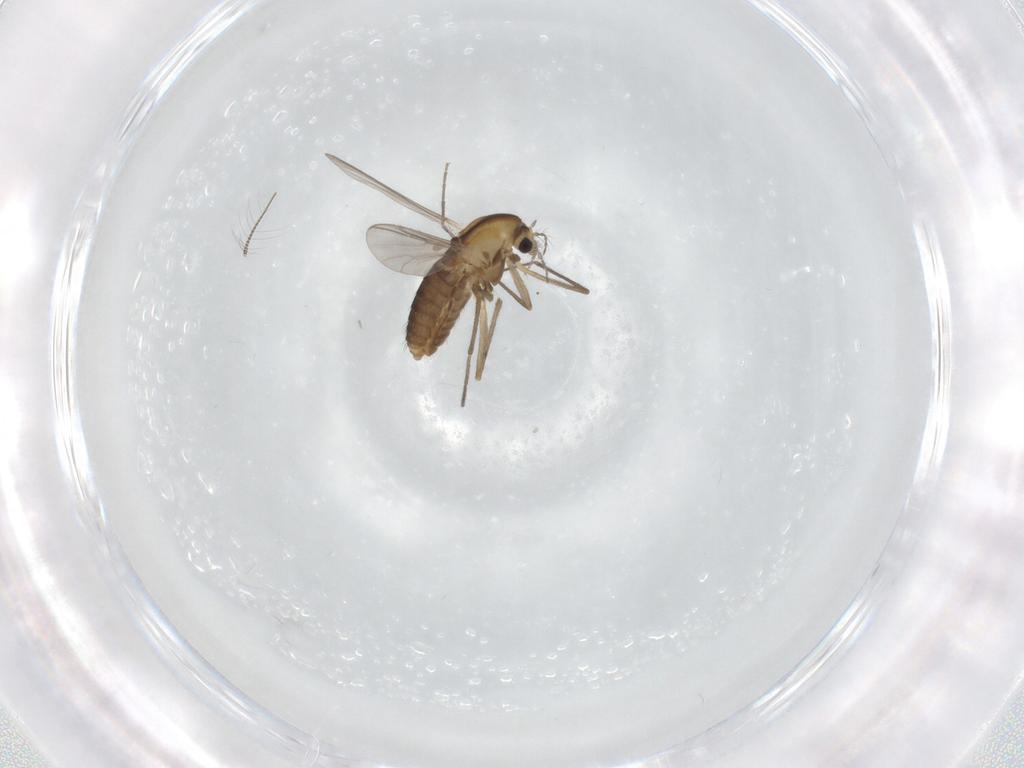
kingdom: Animalia
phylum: Arthropoda
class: Insecta
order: Diptera
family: Chironomidae
